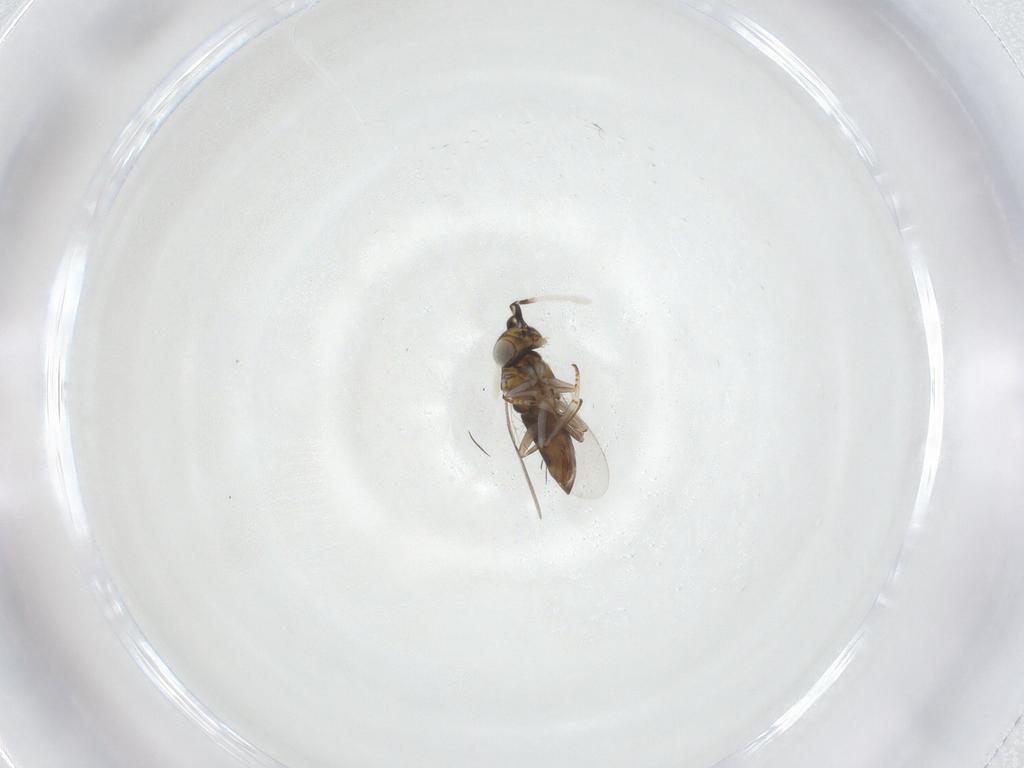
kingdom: Animalia
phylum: Arthropoda
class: Insecta
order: Hymenoptera
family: Encyrtidae
